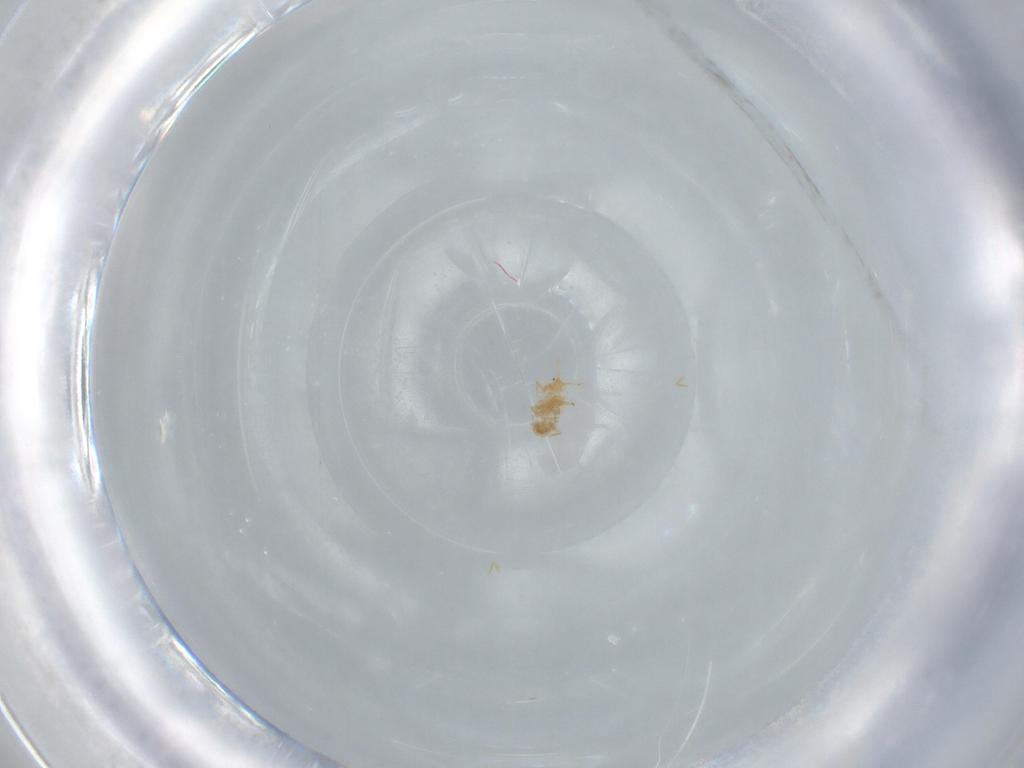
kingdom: Animalia
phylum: Arthropoda
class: Insecta
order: Diptera
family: Phoridae
